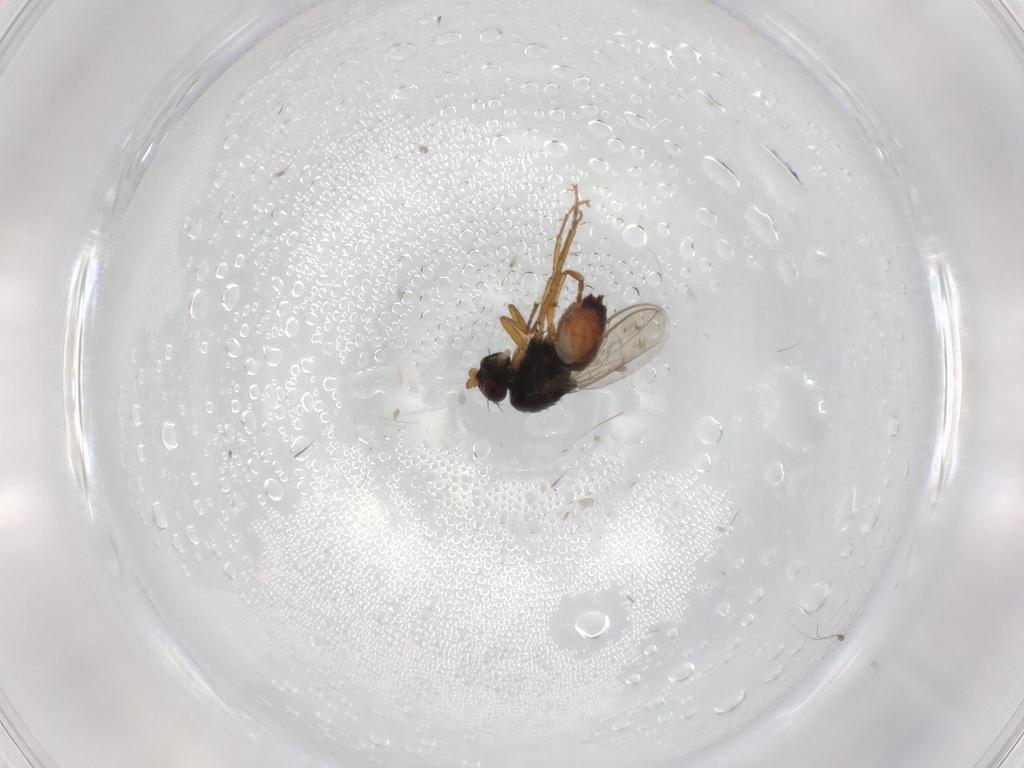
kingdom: Animalia
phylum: Arthropoda
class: Insecta
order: Diptera
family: Sphaeroceridae
